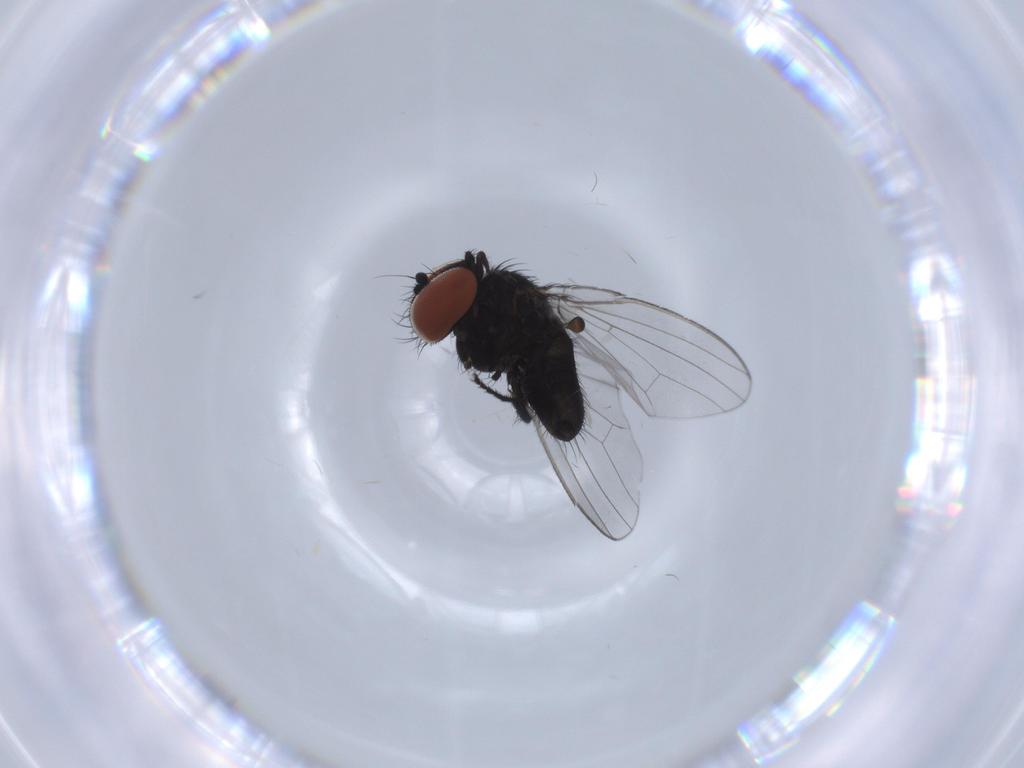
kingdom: Animalia
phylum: Arthropoda
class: Insecta
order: Diptera
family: Milichiidae
